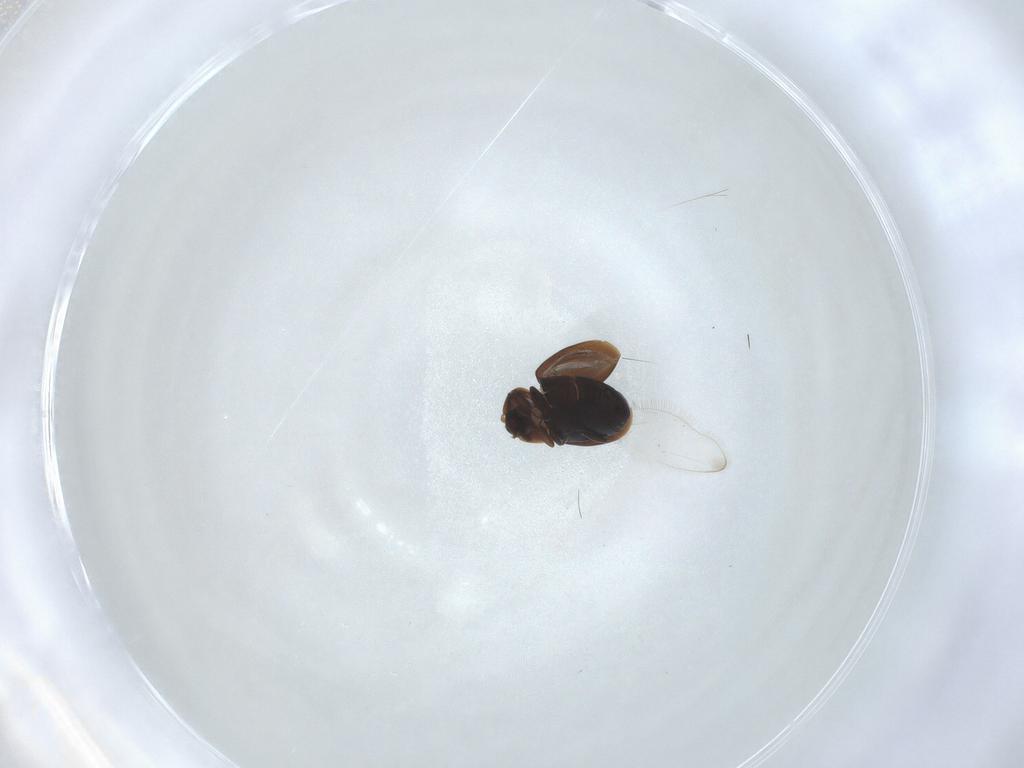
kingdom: Animalia
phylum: Arthropoda
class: Insecta
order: Coleoptera
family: Corylophidae
